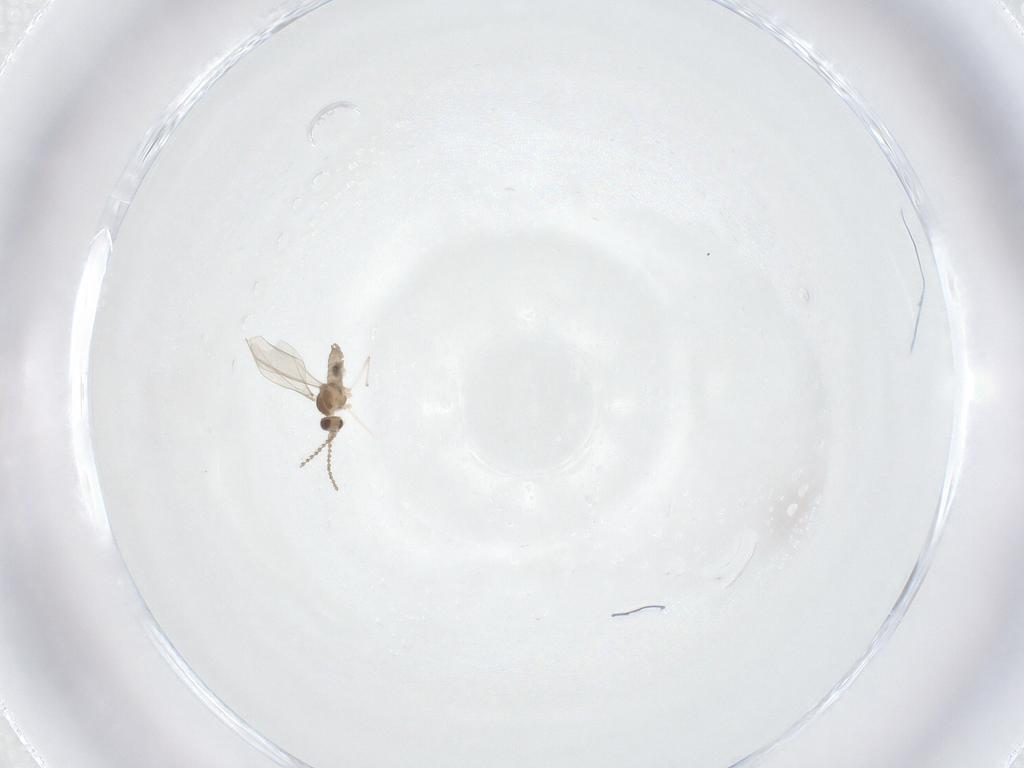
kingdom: Animalia
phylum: Arthropoda
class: Insecta
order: Diptera
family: Cecidomyiidae
